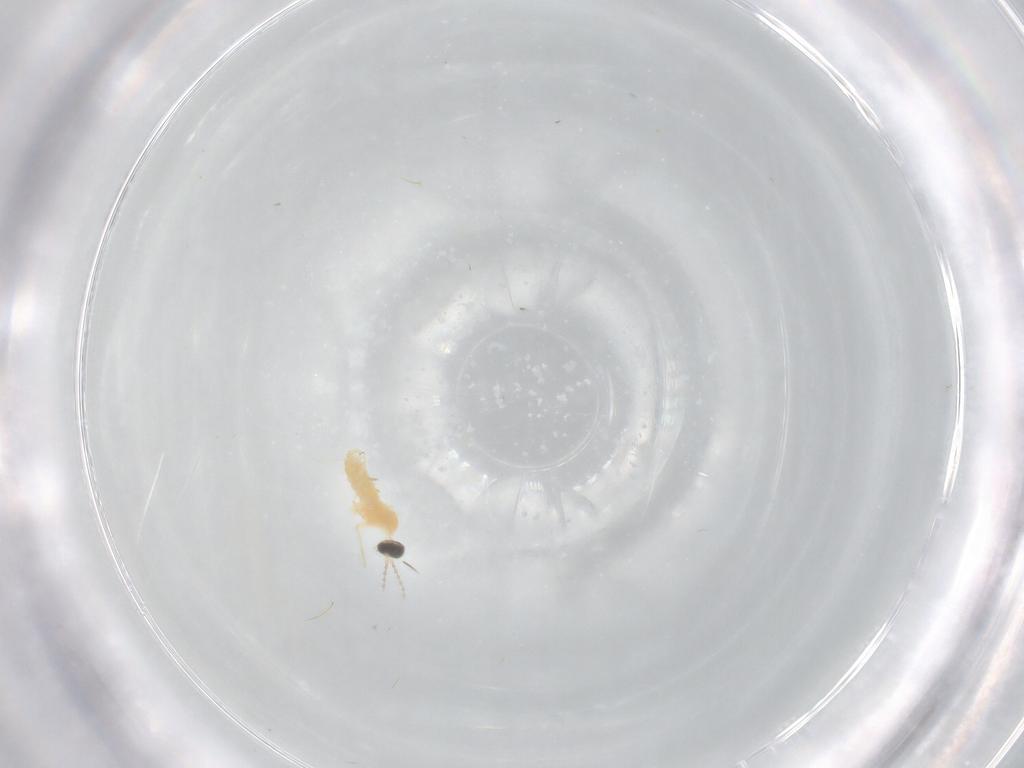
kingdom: Animalia
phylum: Arthropoda
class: Insecta
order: Diptera
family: Cecidomyiidae
